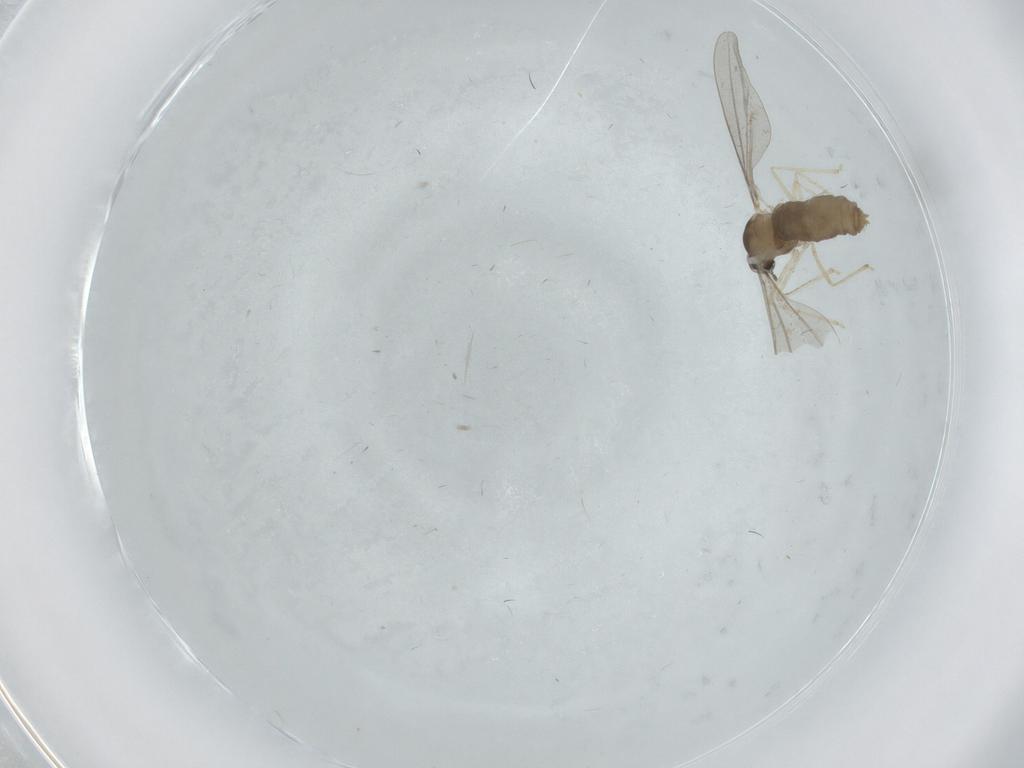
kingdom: Animalia
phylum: Arthropoda
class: Insecta
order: Diptera
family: Cecidomyiidae
